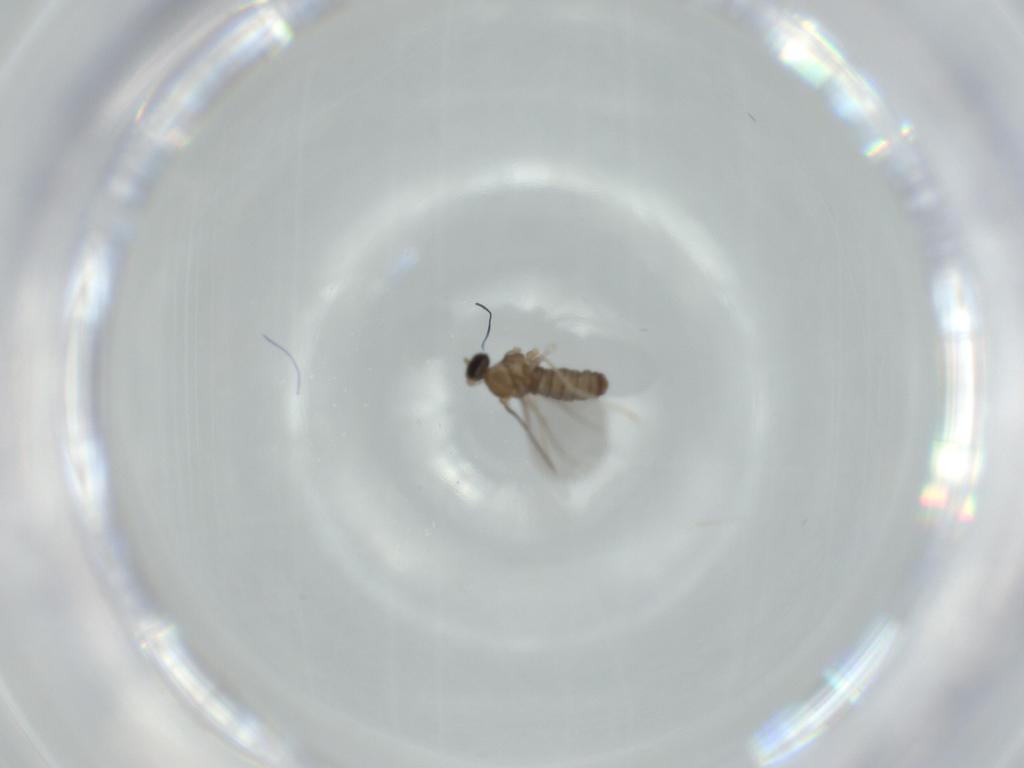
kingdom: Animalia
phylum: Arthropoda
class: Insecta
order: Diptera
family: Cecidomyiidae
